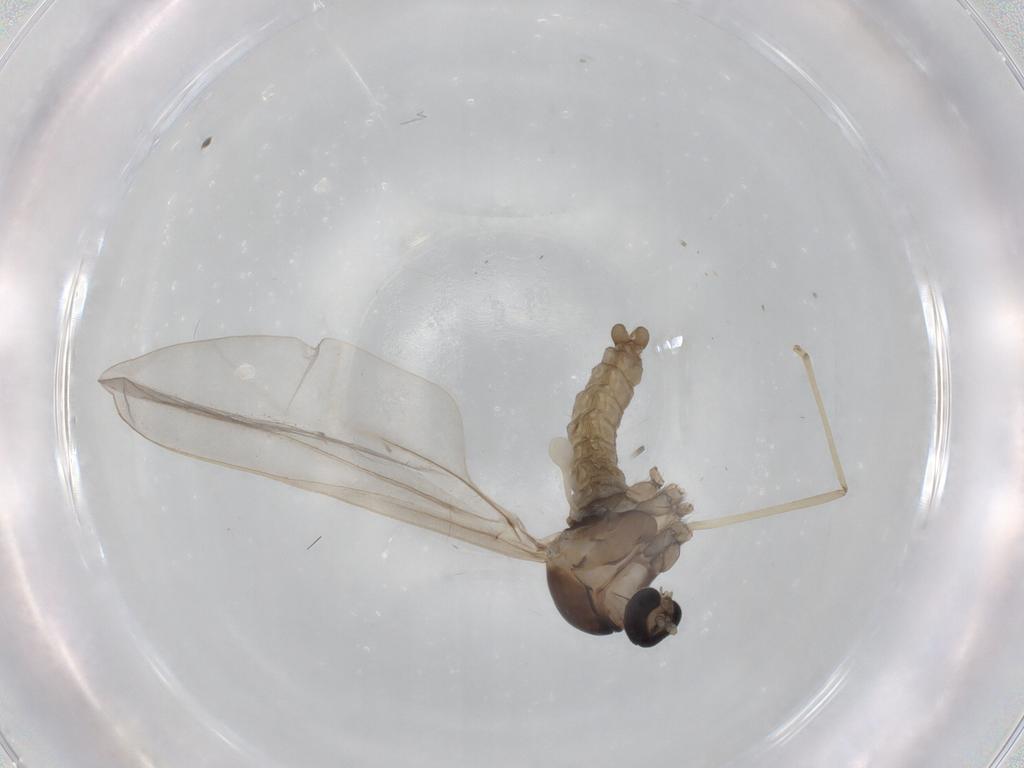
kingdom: Animalia
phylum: Arthropoda
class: Insecta
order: Diptera
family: Cecidomyiidae
